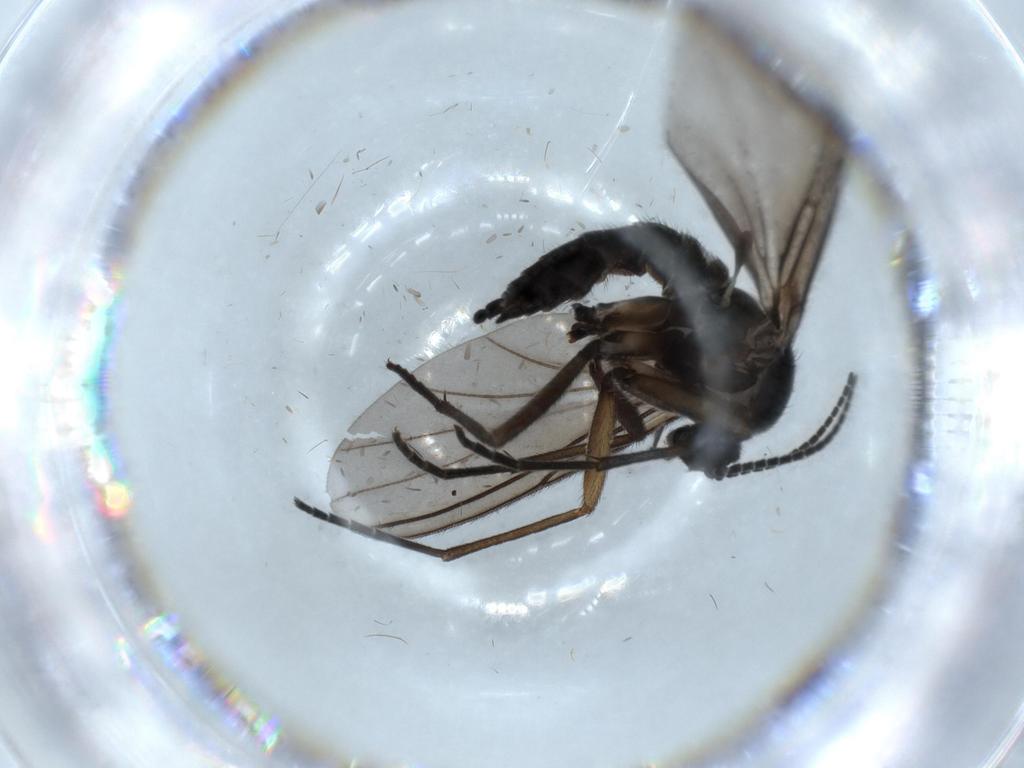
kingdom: Animalia
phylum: Arthropoda
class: Insecta
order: Diptera
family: Sciaridae
